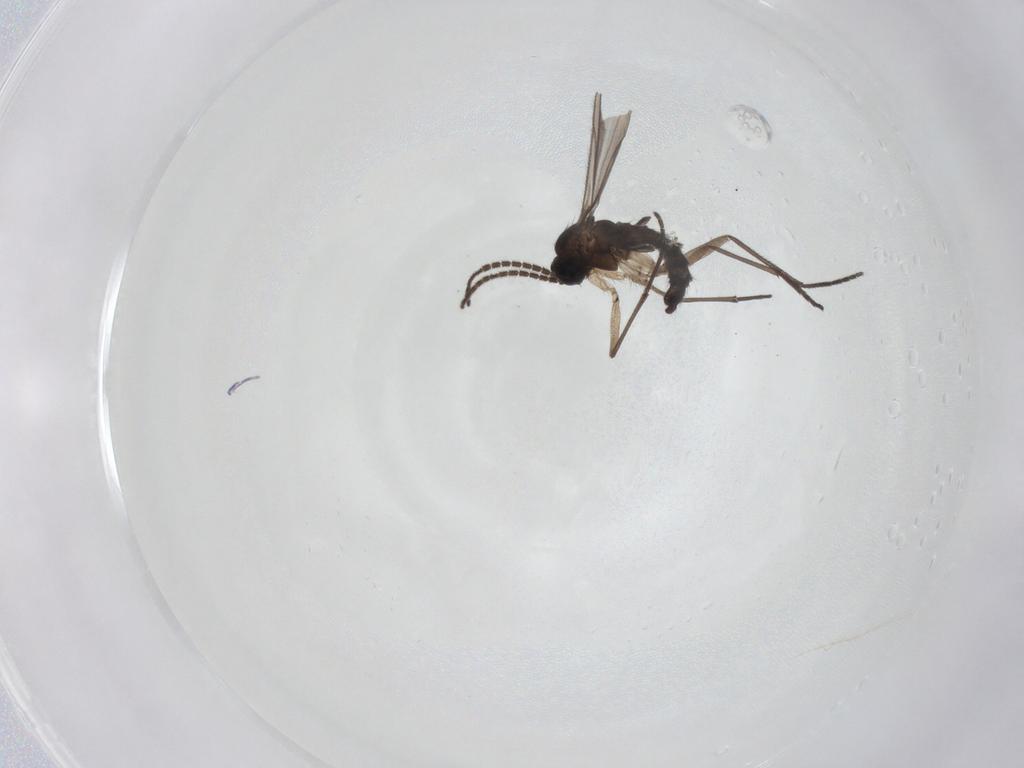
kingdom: Animalia
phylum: Arthropoda
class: Insecta
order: Diptera
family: Sciaridae
